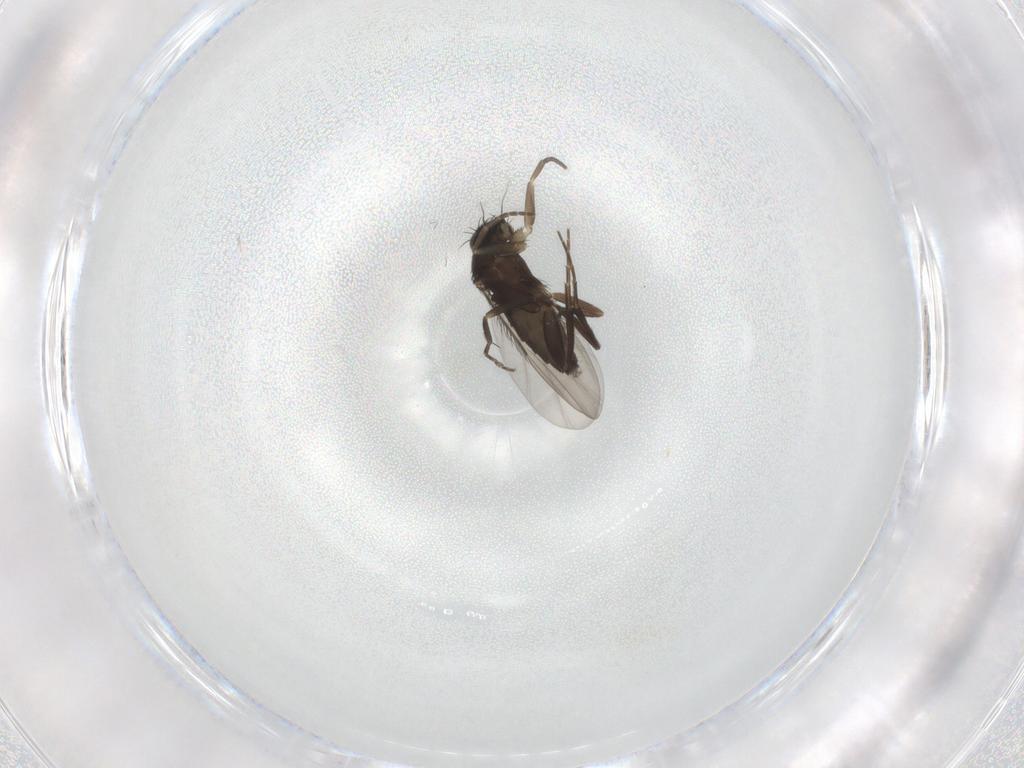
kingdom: Animalia
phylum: Arthropoda
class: Insecta
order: Diptera
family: Phoridae
